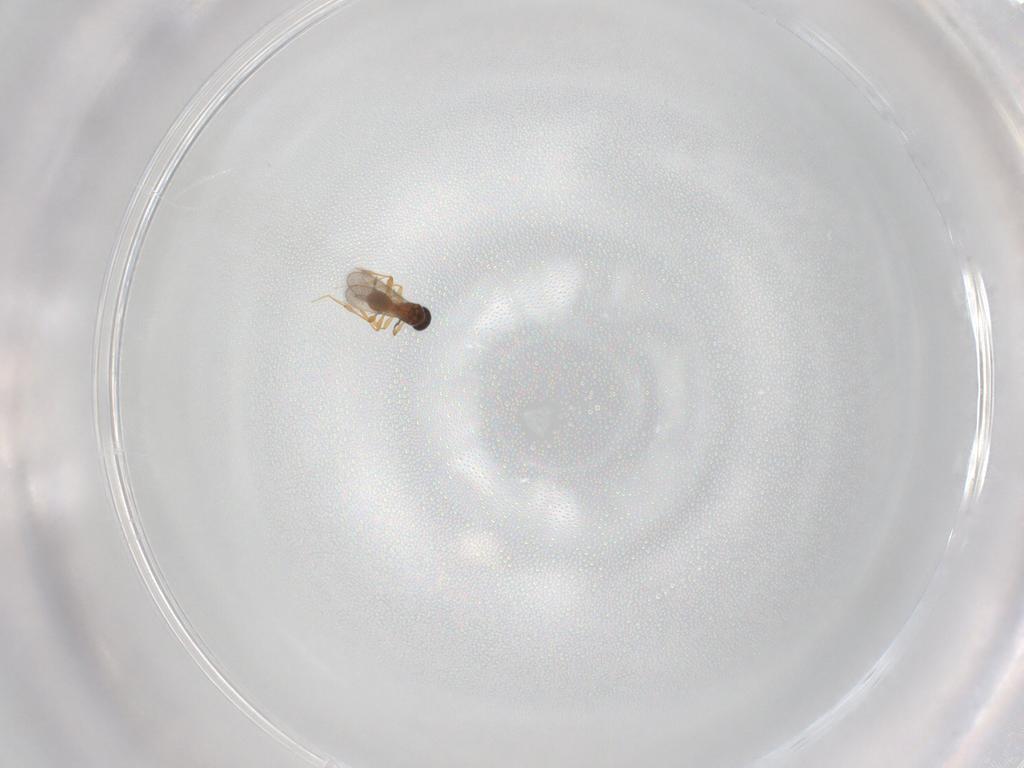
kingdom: Animalia
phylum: Arthropoda
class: Insecta
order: Hymenoptera
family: Platygastridae
